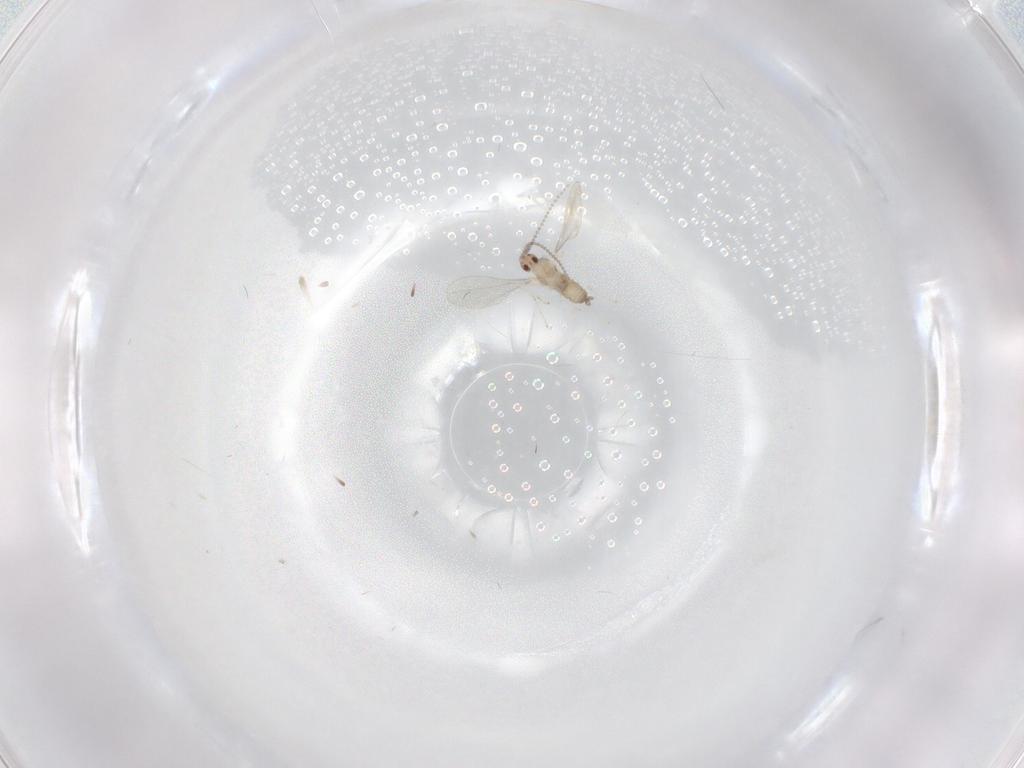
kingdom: Animalia
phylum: Arthropoda
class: Insecta
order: Diptera
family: Cecidomyiidae
